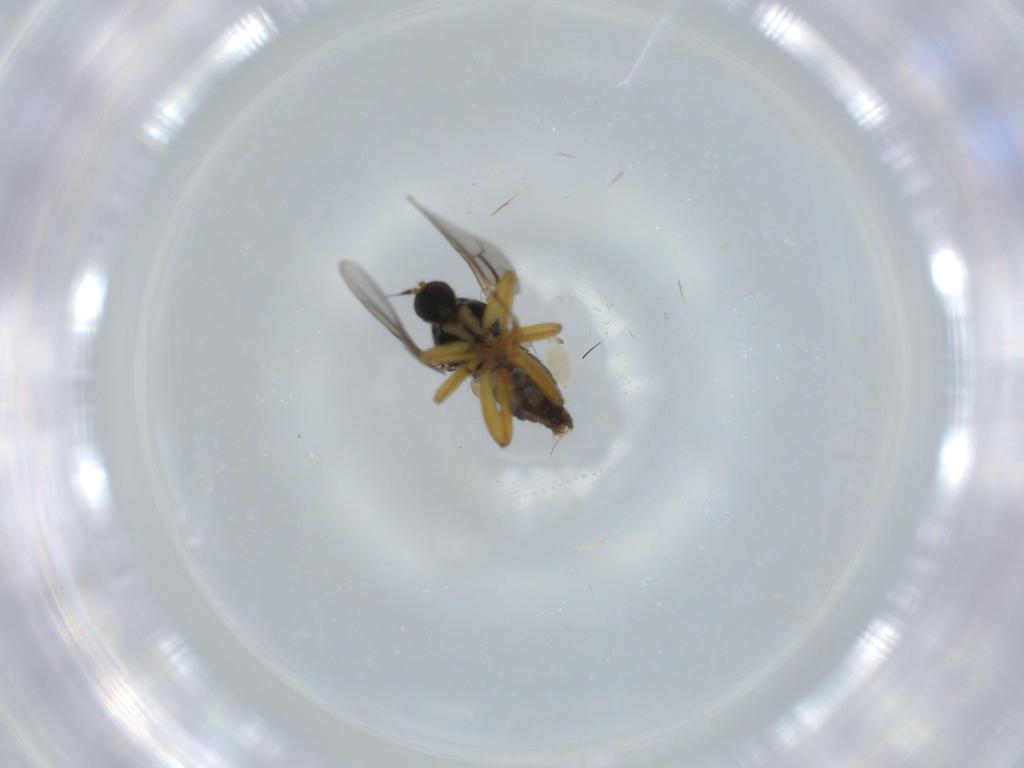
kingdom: Animalia
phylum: Arthropoda
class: Insecta
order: Diptera
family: Hybotidae
